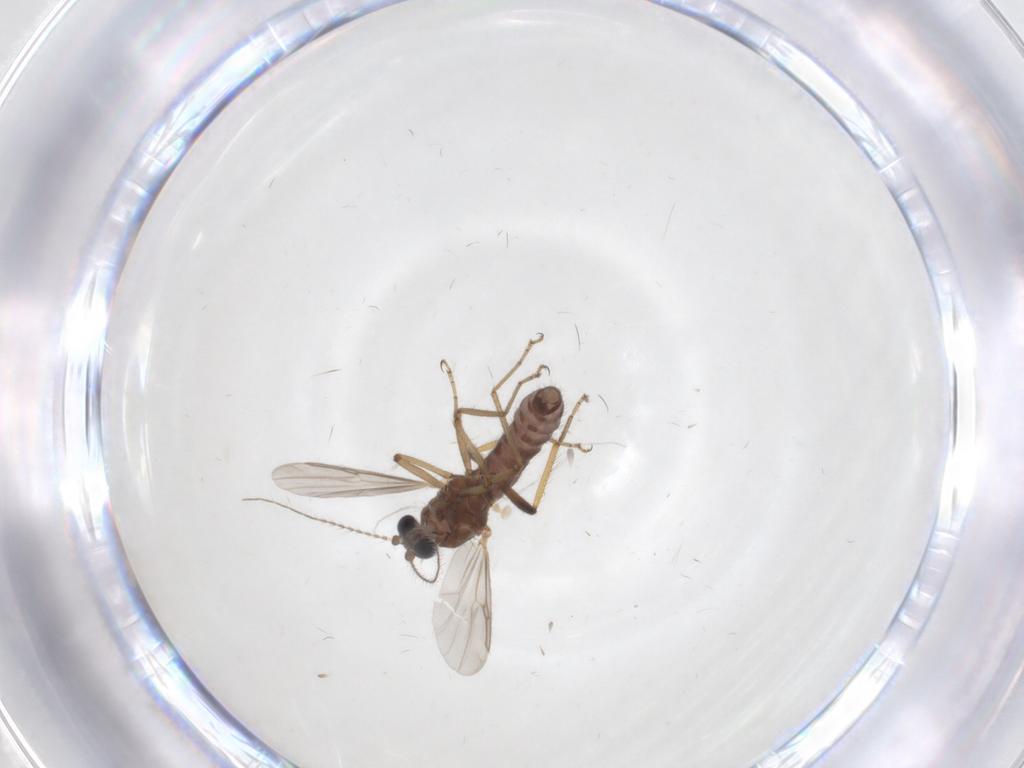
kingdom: Animalia
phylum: Arthropoda
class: Insecta
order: Diptera
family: Ceratopogonidae
